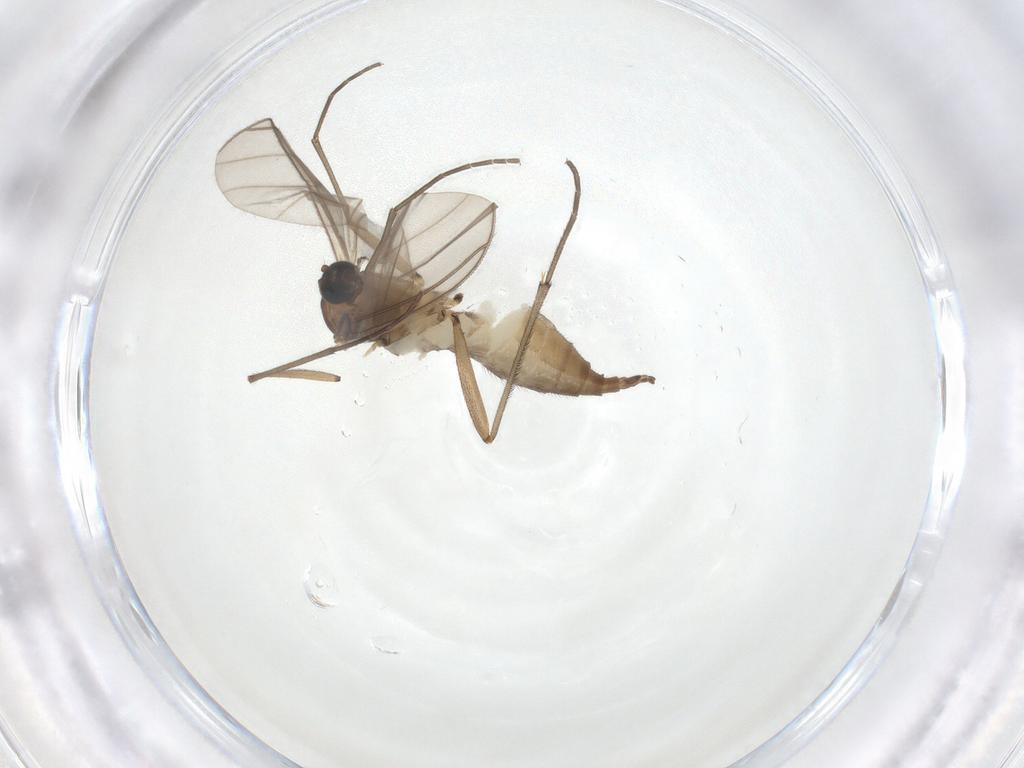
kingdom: Animalia
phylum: Arthropoda
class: Insecta
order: Diptera
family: Sciaridae
